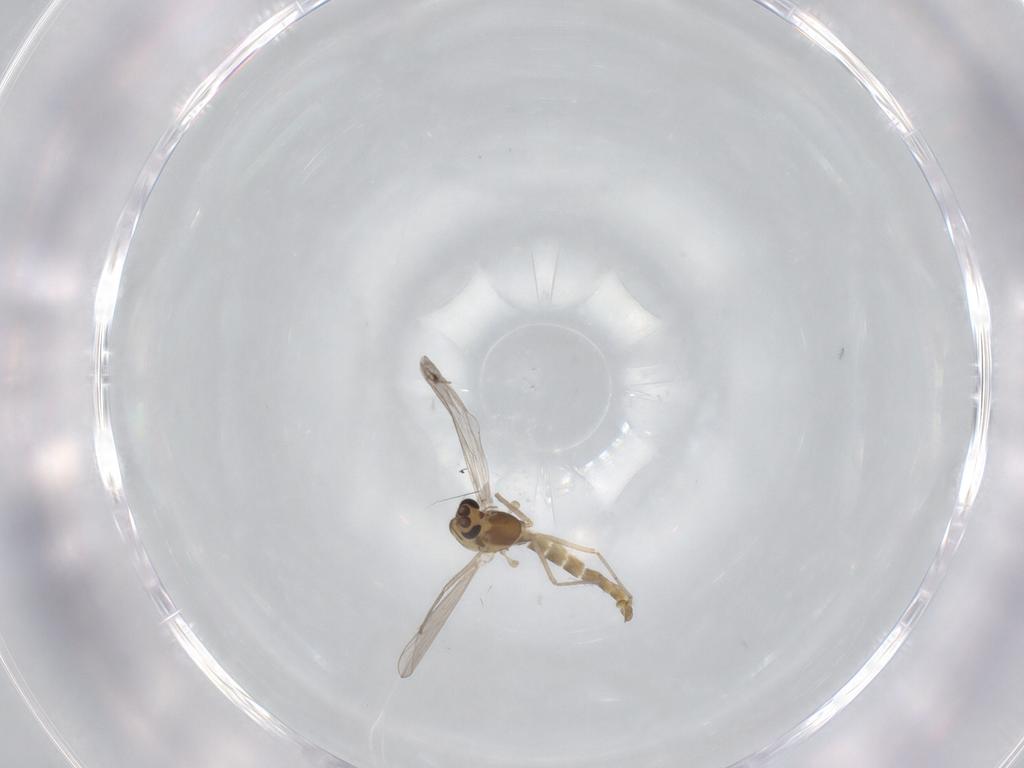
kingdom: Animalia
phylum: Arthropoda
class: Insecta
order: Diptera
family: Chironomidae
